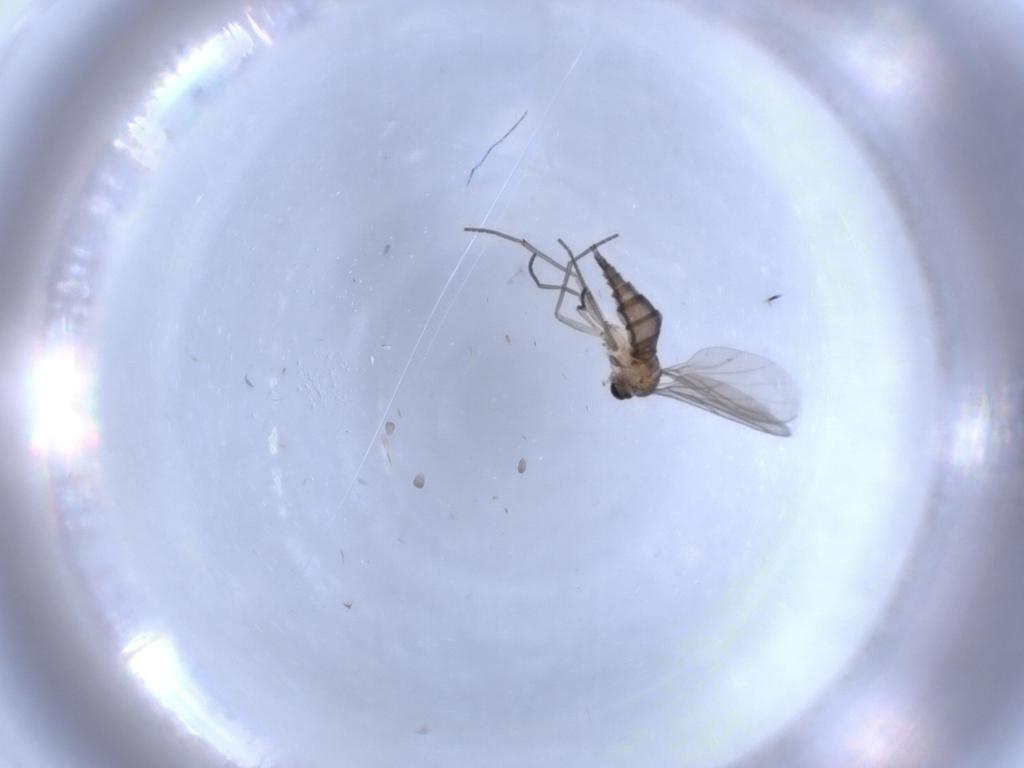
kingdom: Animalia
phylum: Arthropoda
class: Insecta
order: Diptera
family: Sciaridae
